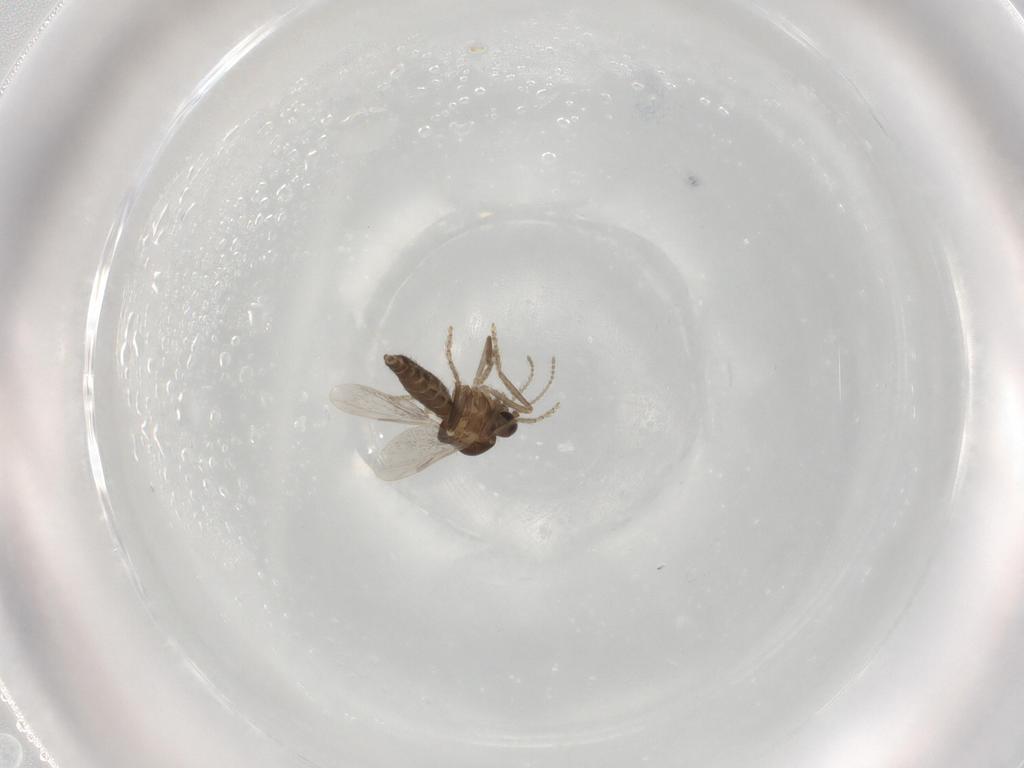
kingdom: Animalia
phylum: Arthropoda
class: Insecta
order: Diptera
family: Ceratopogonidae
